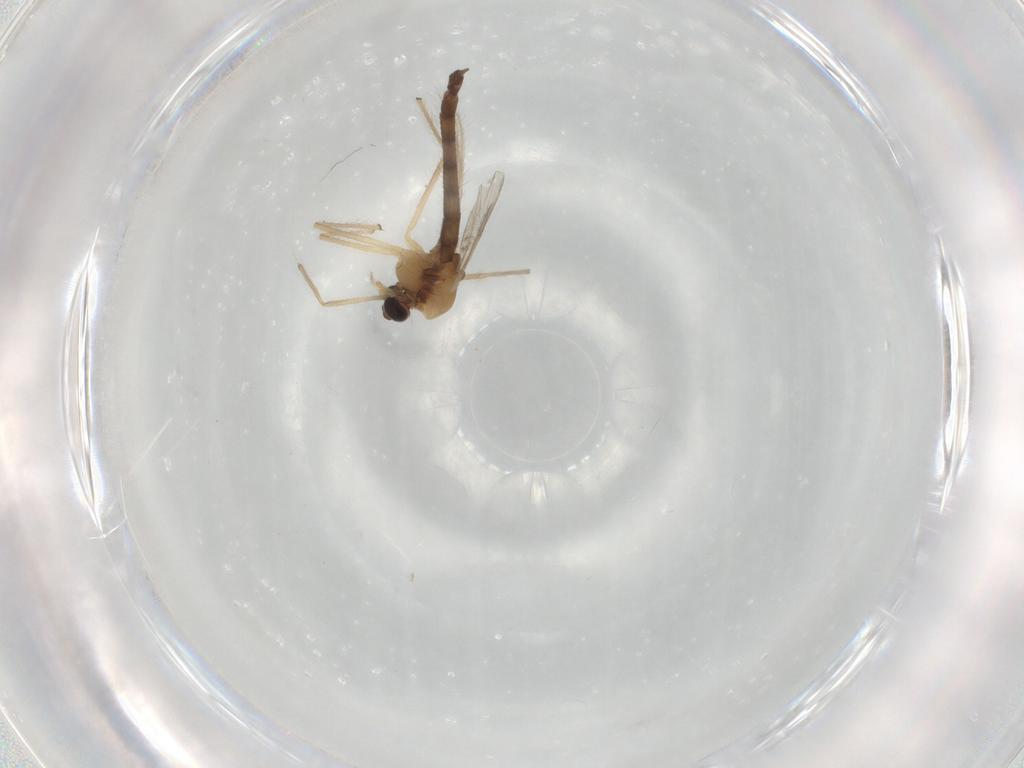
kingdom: Animalia
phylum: Arthropoda
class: Insecta
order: Diptera
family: Chironomidae
